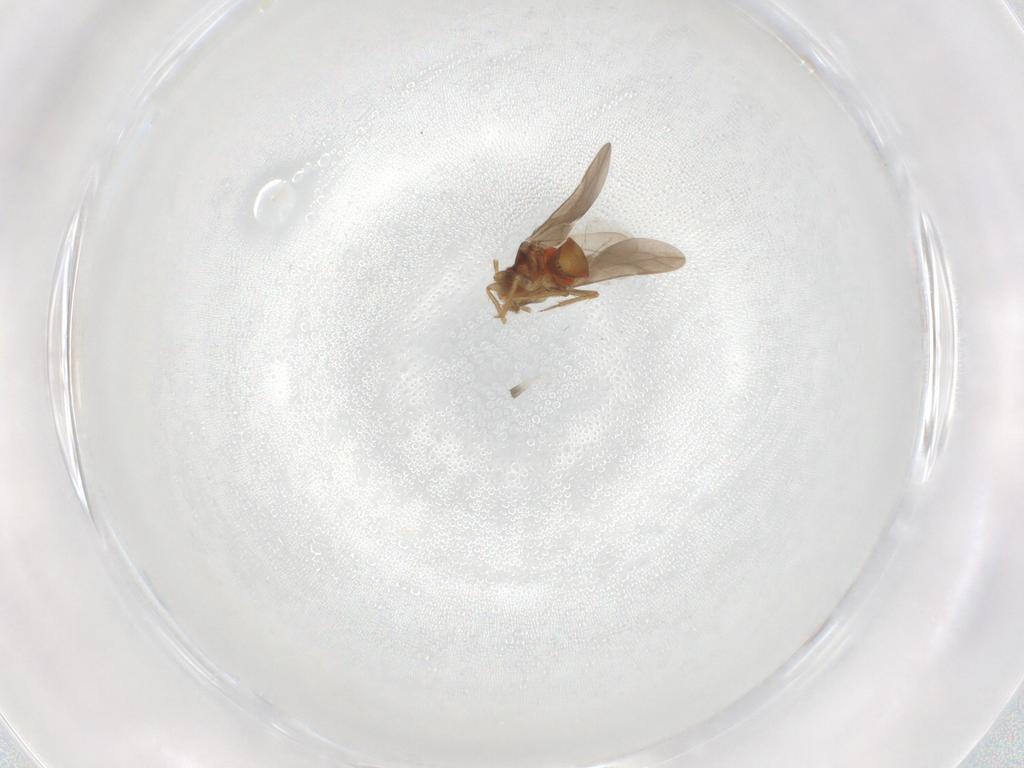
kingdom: Animalia
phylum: Arthropoda
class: Insecta
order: Hemiptera
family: Ceratocombidae
